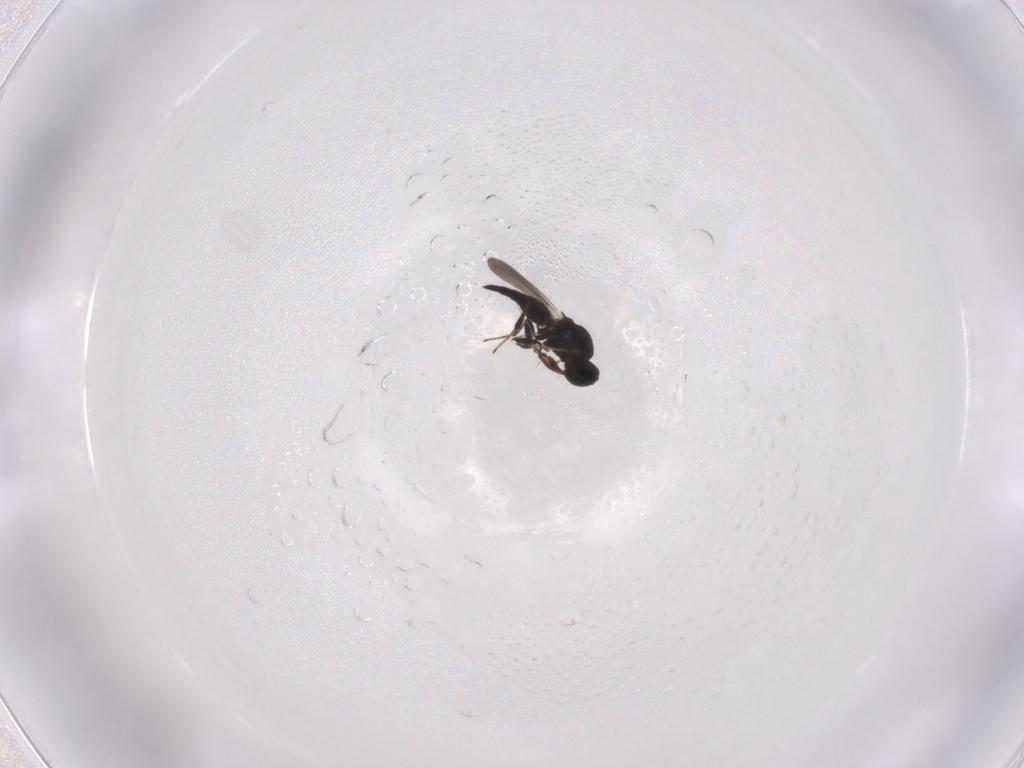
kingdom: Animalia
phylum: Arthropoda
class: Insecta
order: Hymenoptera
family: Platygastridae
